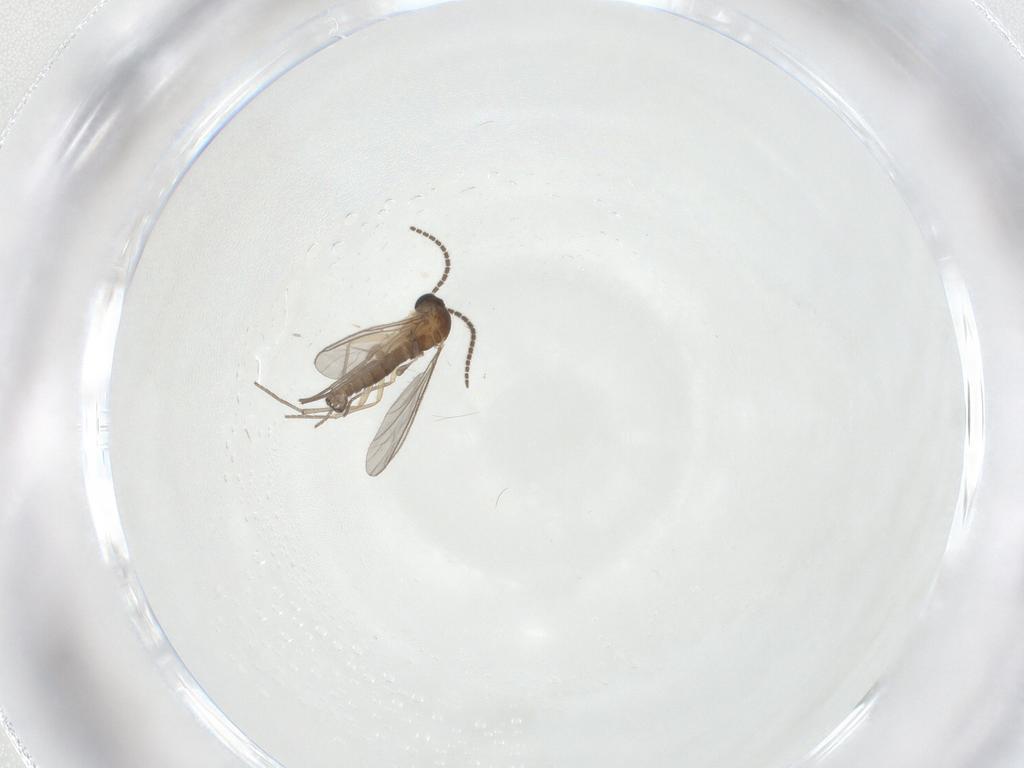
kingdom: Animalia
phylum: Arthropoda
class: Insecta
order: Diptera
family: Sciaridae
